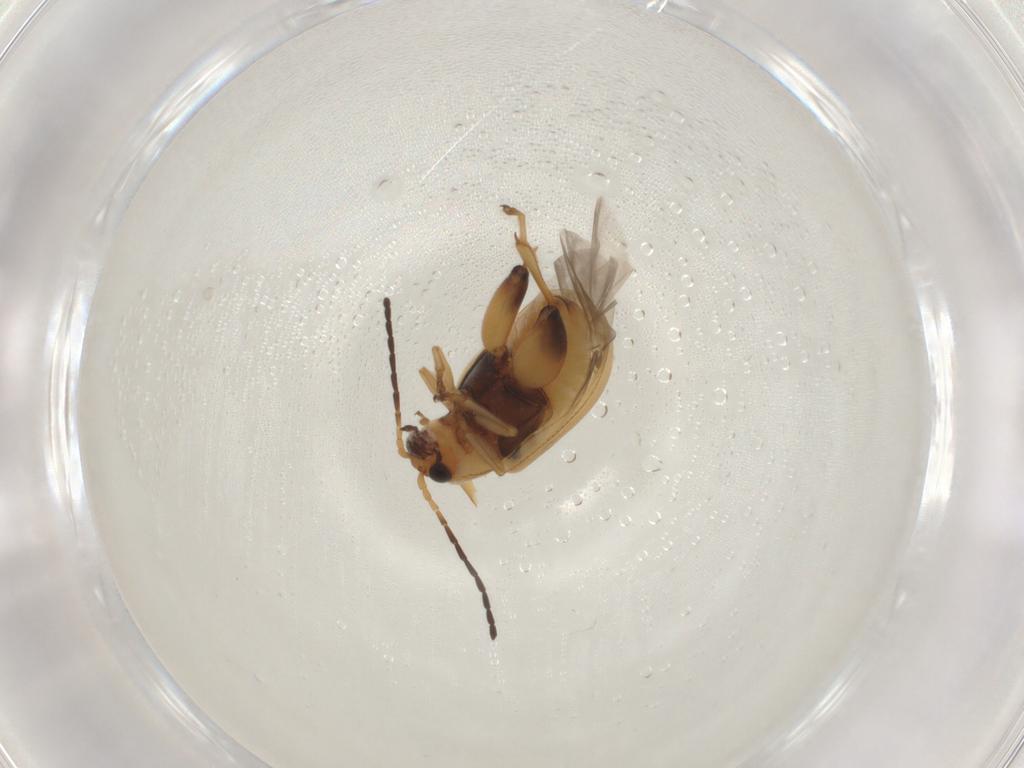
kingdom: Animalia
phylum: Arthropoda
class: Insecta
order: Coleoptera
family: Chrysomelidae
